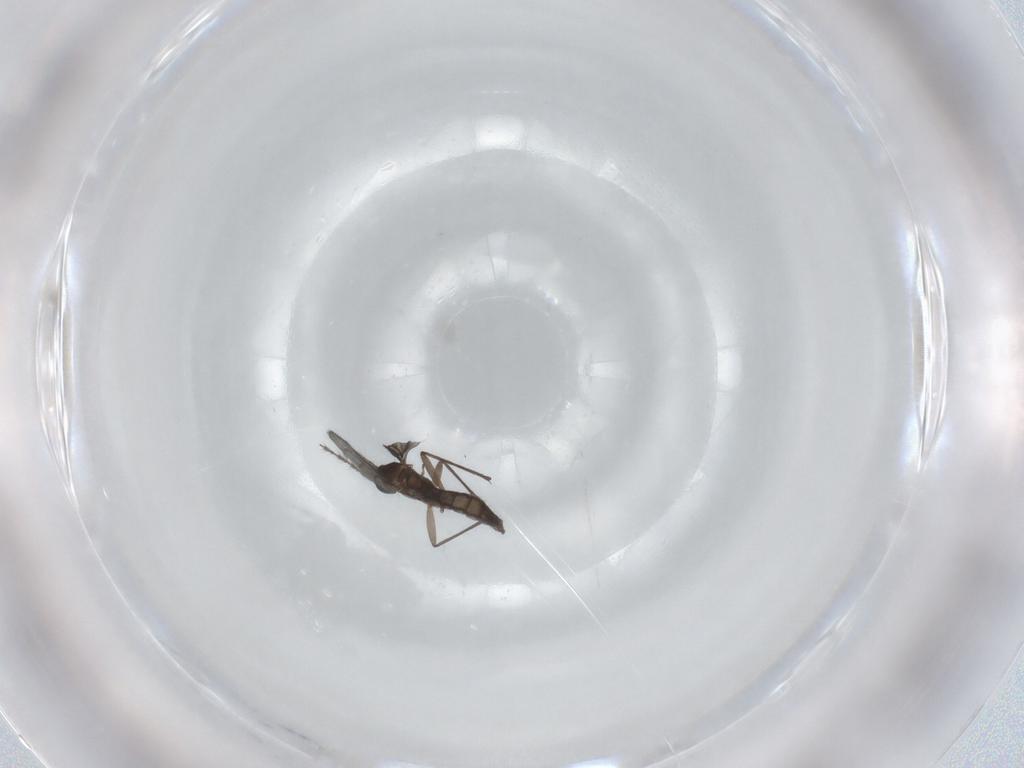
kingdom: Animalia
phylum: Arthropoda
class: Insecta
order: Diptera
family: Sciaridae
